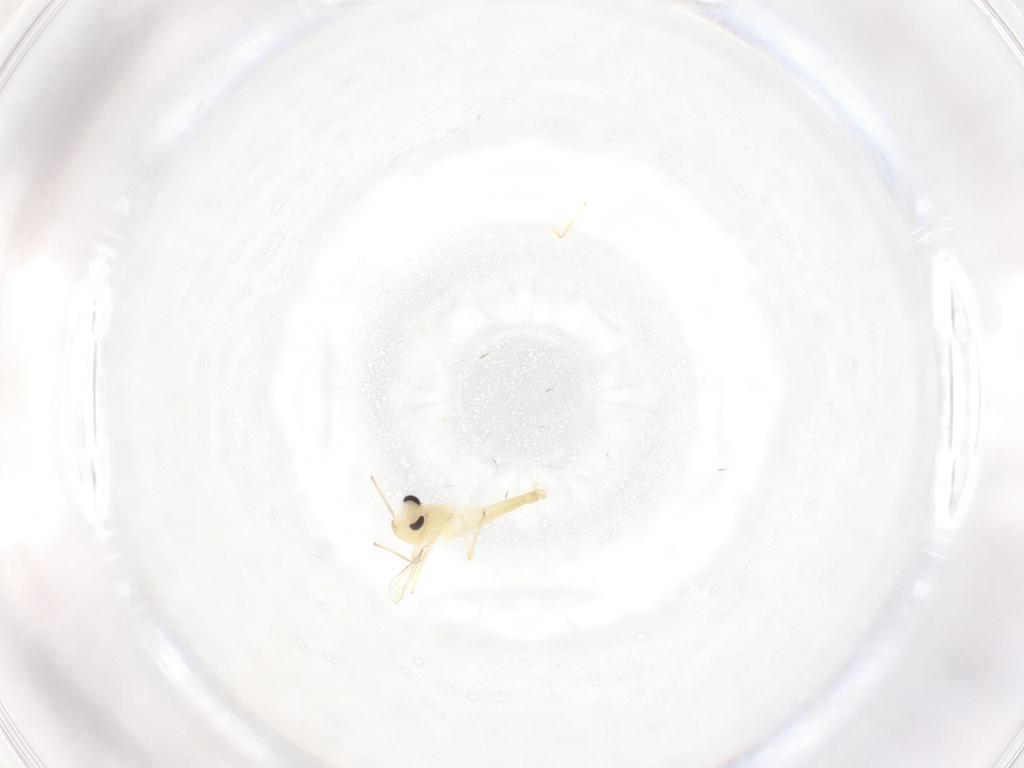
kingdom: Animalia
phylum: Arthropoda
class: Insecta
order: Diptera
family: Chironomidae
